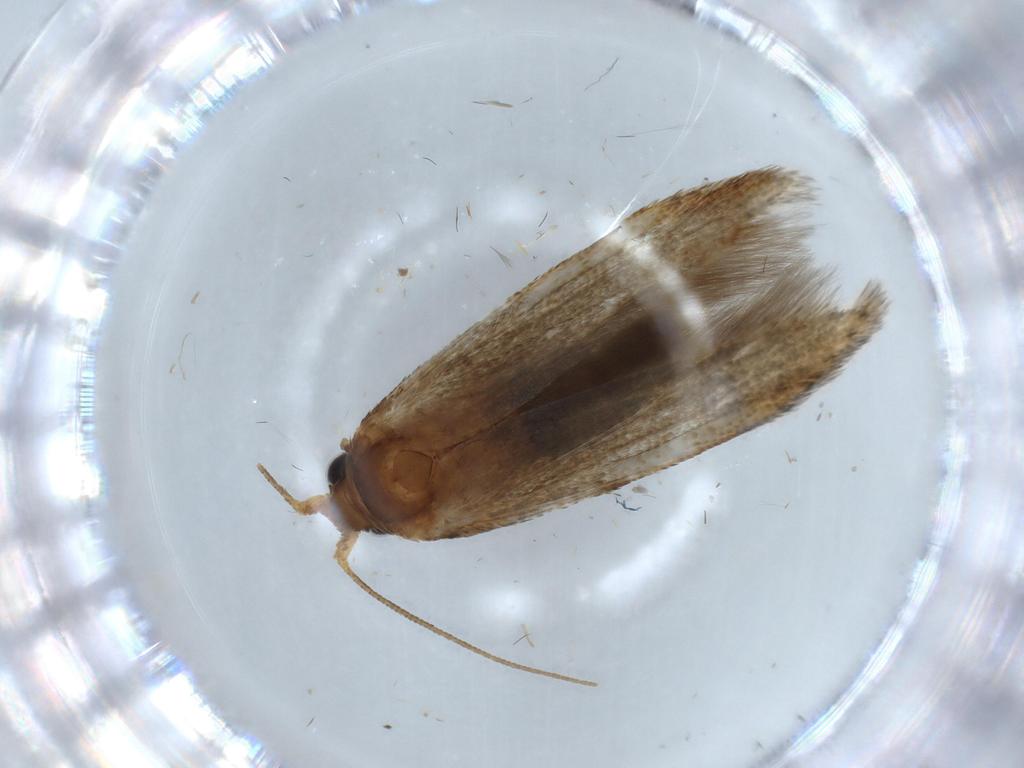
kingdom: Animalia
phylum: Arthropoda
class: Insecta
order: Lepidoptera
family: Coleophoridae
